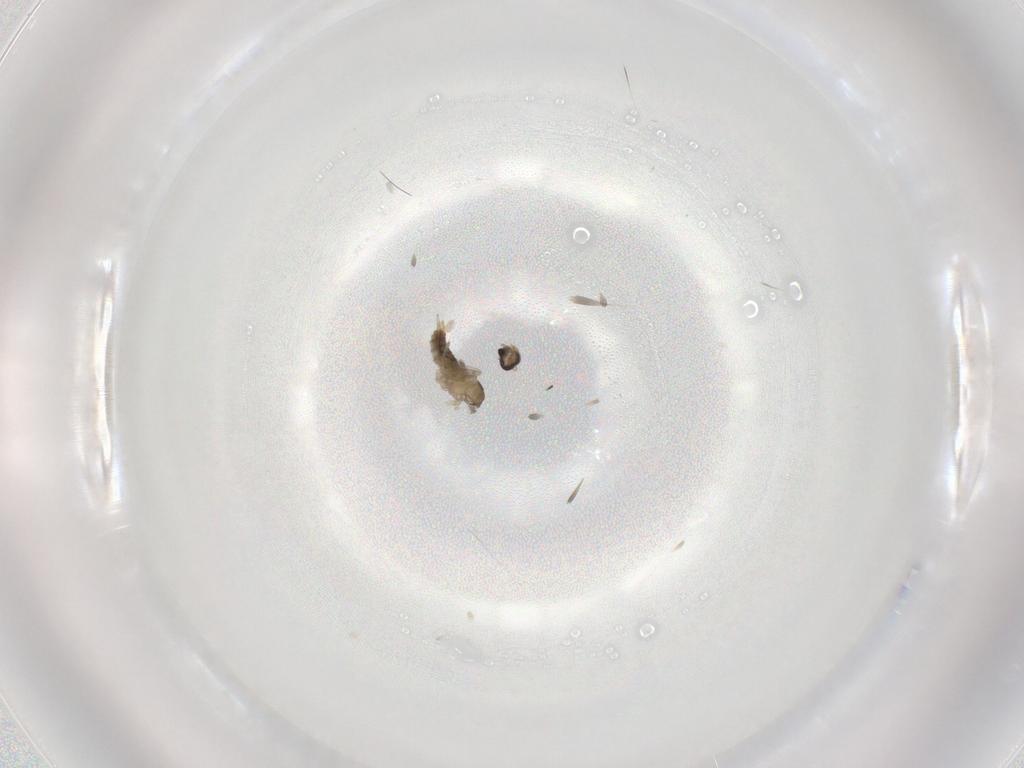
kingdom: Animalia
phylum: Arthropoda
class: Insecta
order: Diptera
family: Cecidomyiidae
